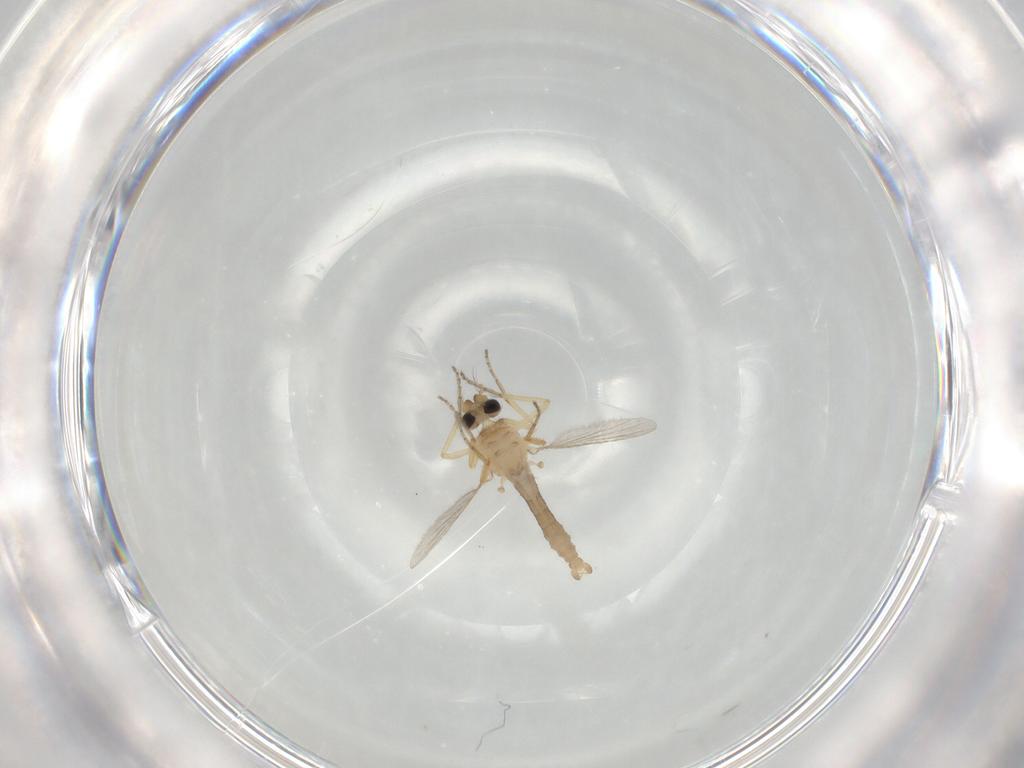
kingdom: Animalia
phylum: Arthropoda
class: Insecta
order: Diptera
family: Ceratopogonidae
